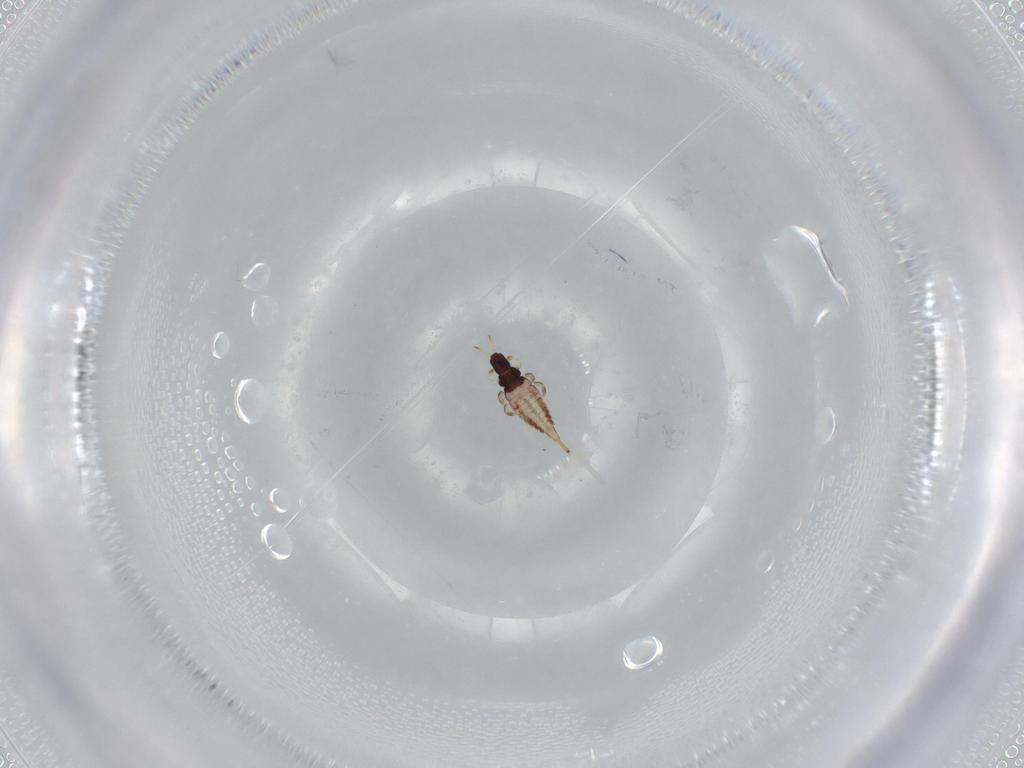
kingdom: Animalia
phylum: Arthropoda
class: Insecta
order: Thysanoptera
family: Phlaeothripidae
